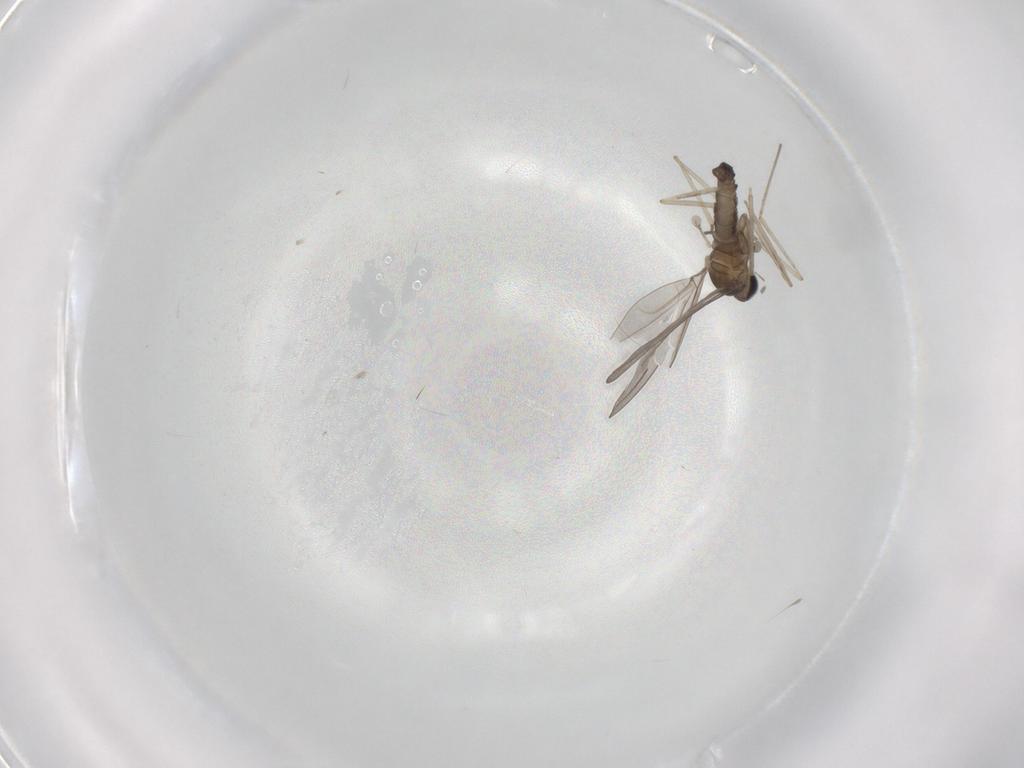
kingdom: Animalia
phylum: Arthropoda
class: Insecta
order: Diptera
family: Cecidomyiidae
